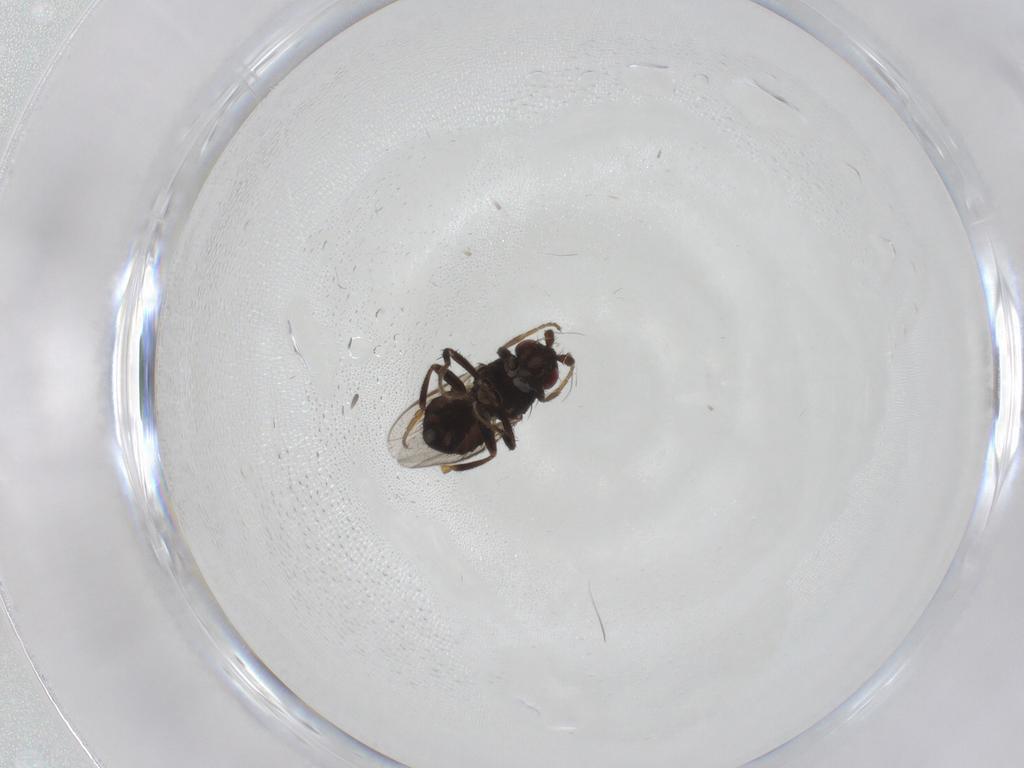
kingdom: Animalia
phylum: Arthropoda
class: Insecta
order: Diptera
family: Sphaeroceridae
